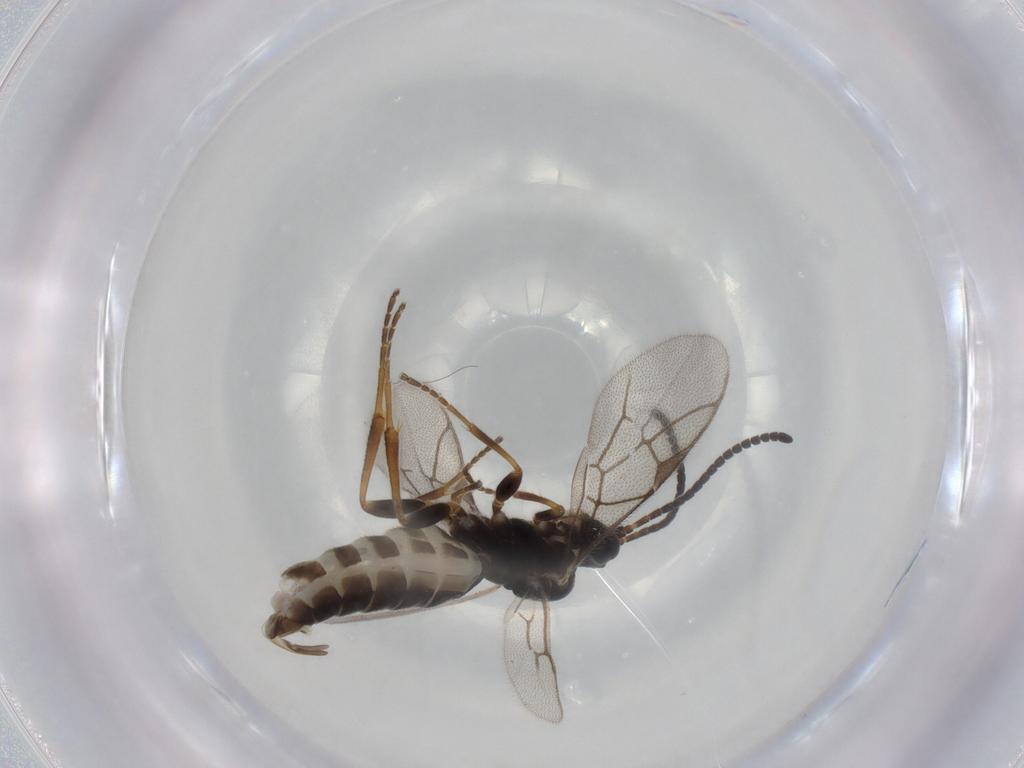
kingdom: Animalia
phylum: Arthropoda
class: Insecta
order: Hymenoptera
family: Ichneumonidae
